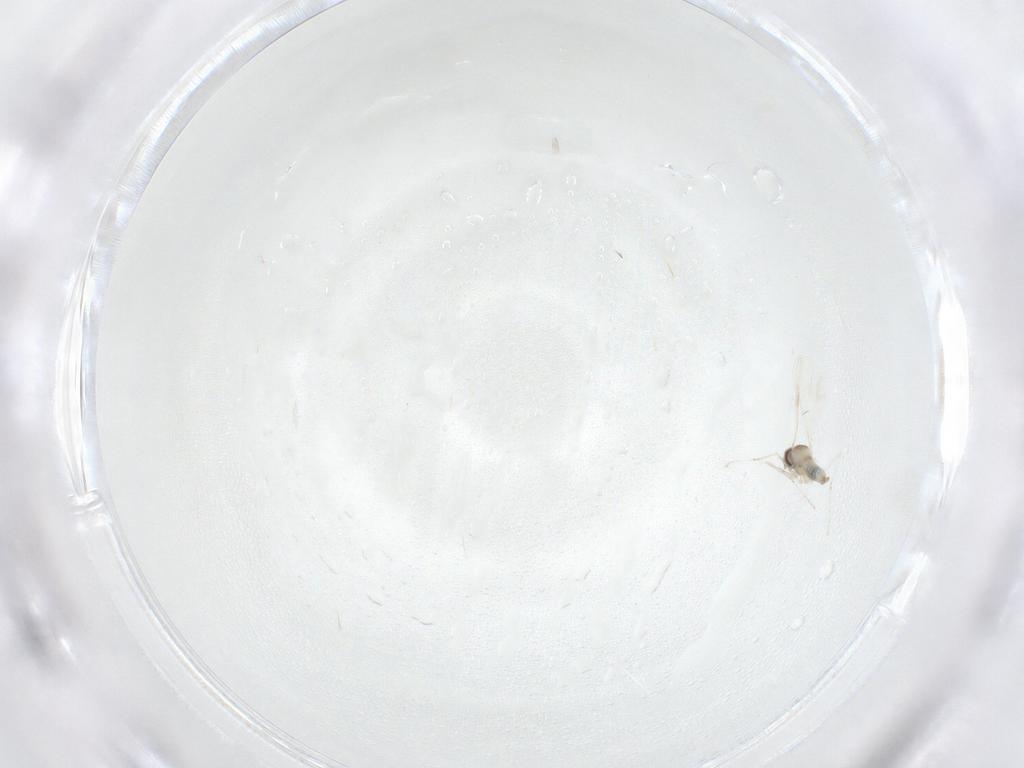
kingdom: Animalia
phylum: Arthropoda
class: Insecta
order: Diptera
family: Cecidomyiidae
